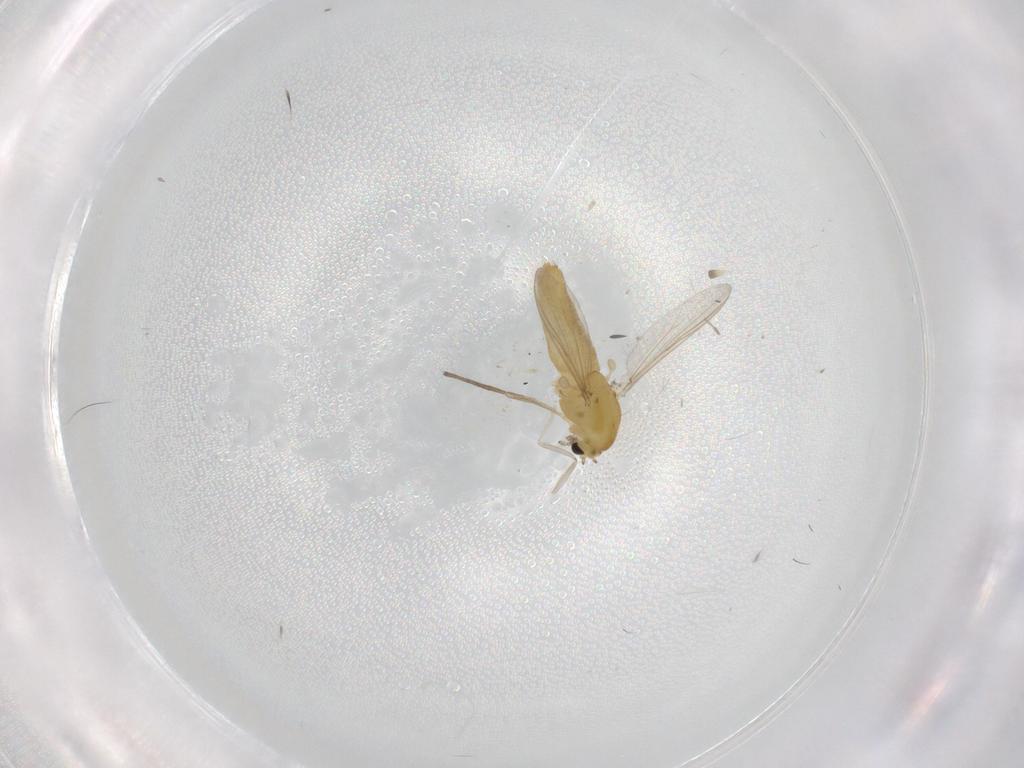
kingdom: Animalia
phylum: Arthropoda
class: Insecta
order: Diptera
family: Chironomidae
